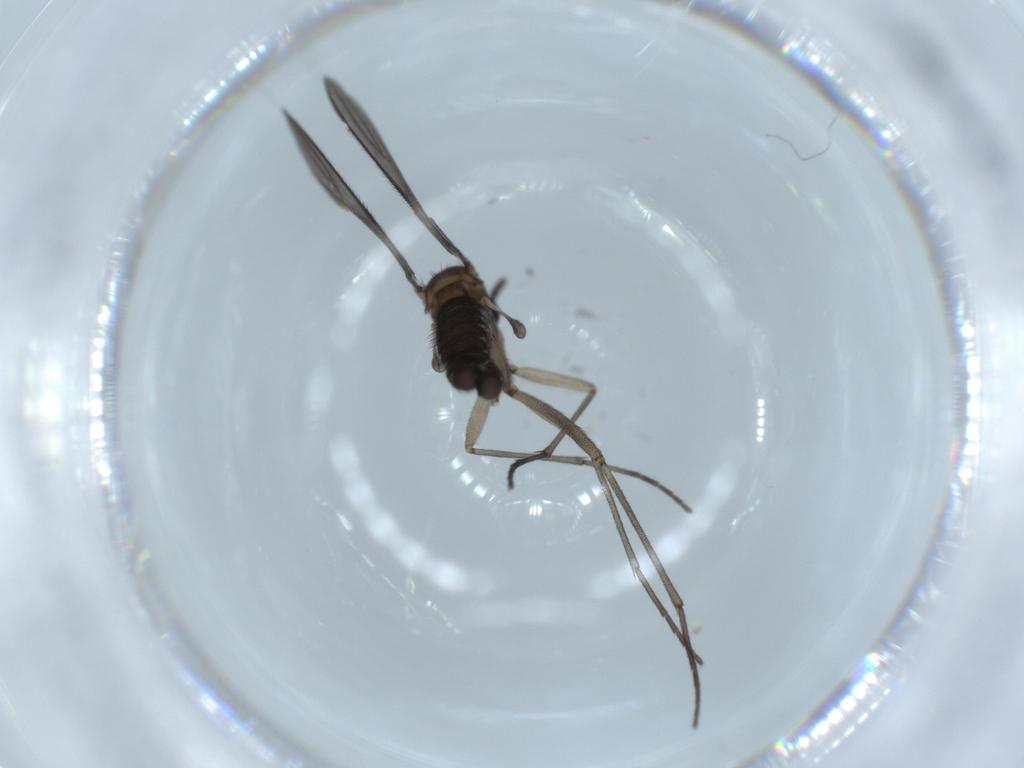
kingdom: Animalia
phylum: Arthropoda
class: Insecta
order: Diptera
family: Sciaridae
